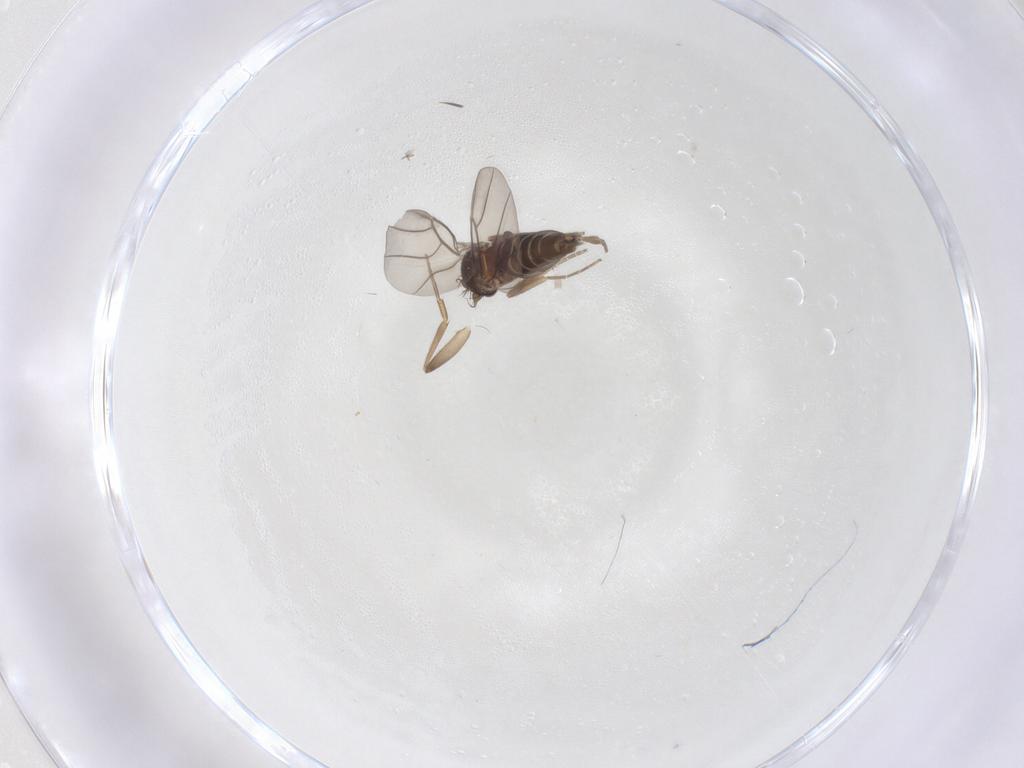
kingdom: Animalia
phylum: Arthropoda
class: Insecta
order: Diptera
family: Phoridae
